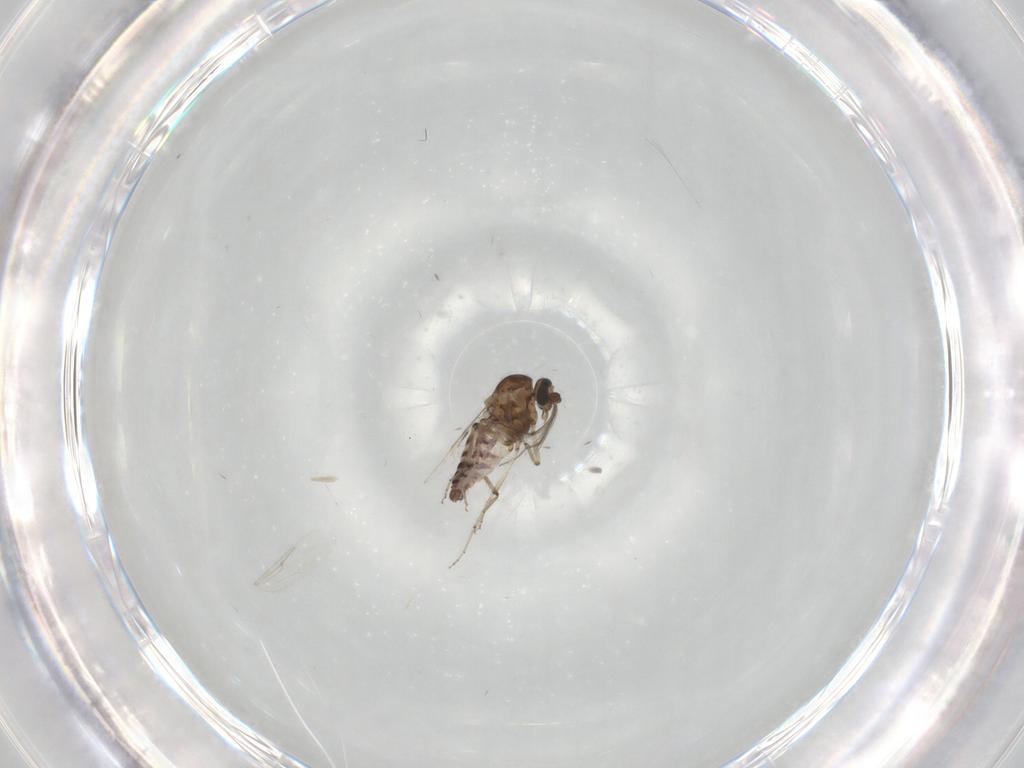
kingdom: Animalia
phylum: Arthropoda
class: Insecta
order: Diptera
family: Ceratopogonidae
